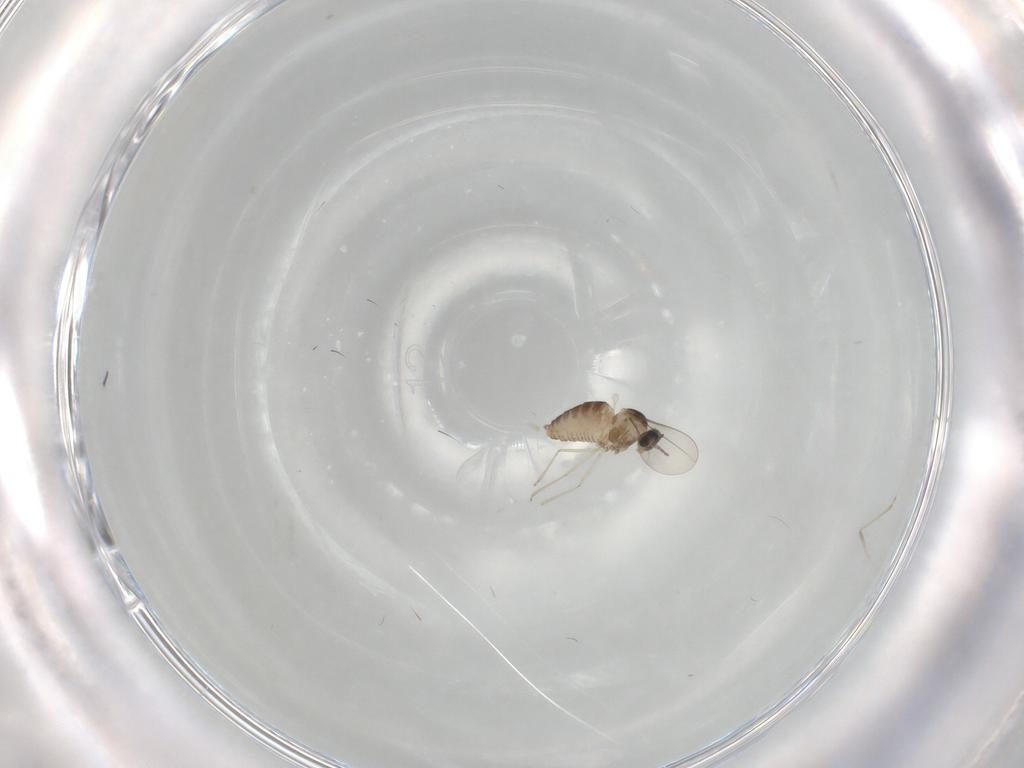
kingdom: Animalia
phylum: Arthropoda
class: Insecta
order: Diptera
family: Cecidomyiidae
